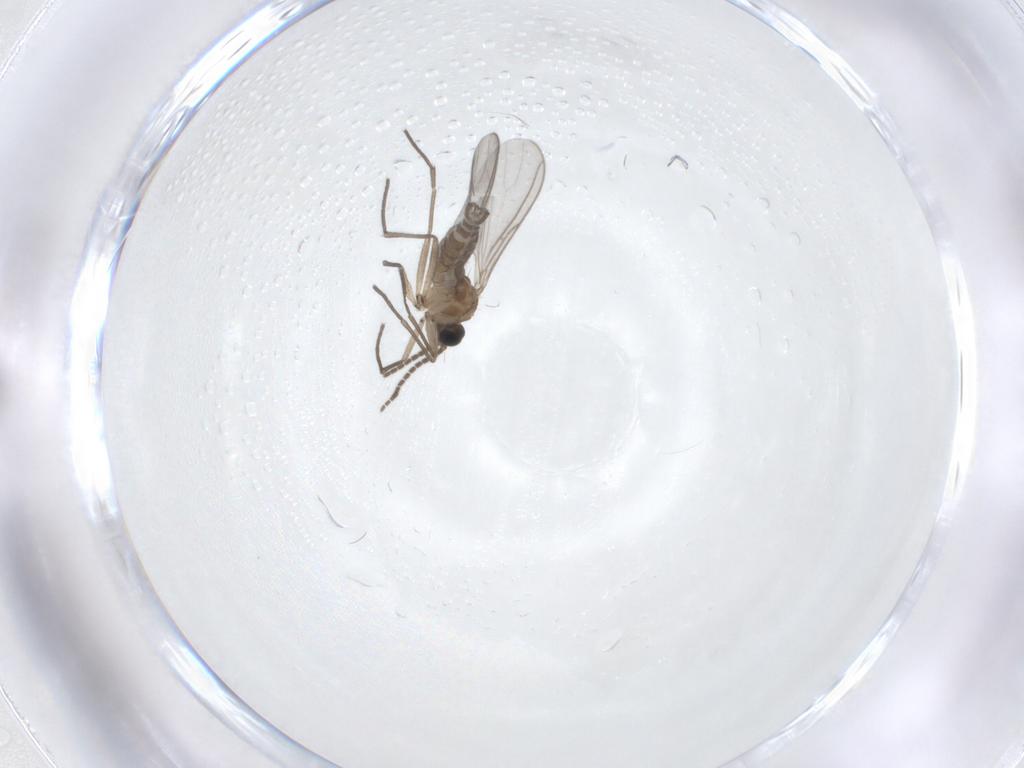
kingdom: Animalia
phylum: Arthropoda
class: Insecta
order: Diptera
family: Sciaridae
